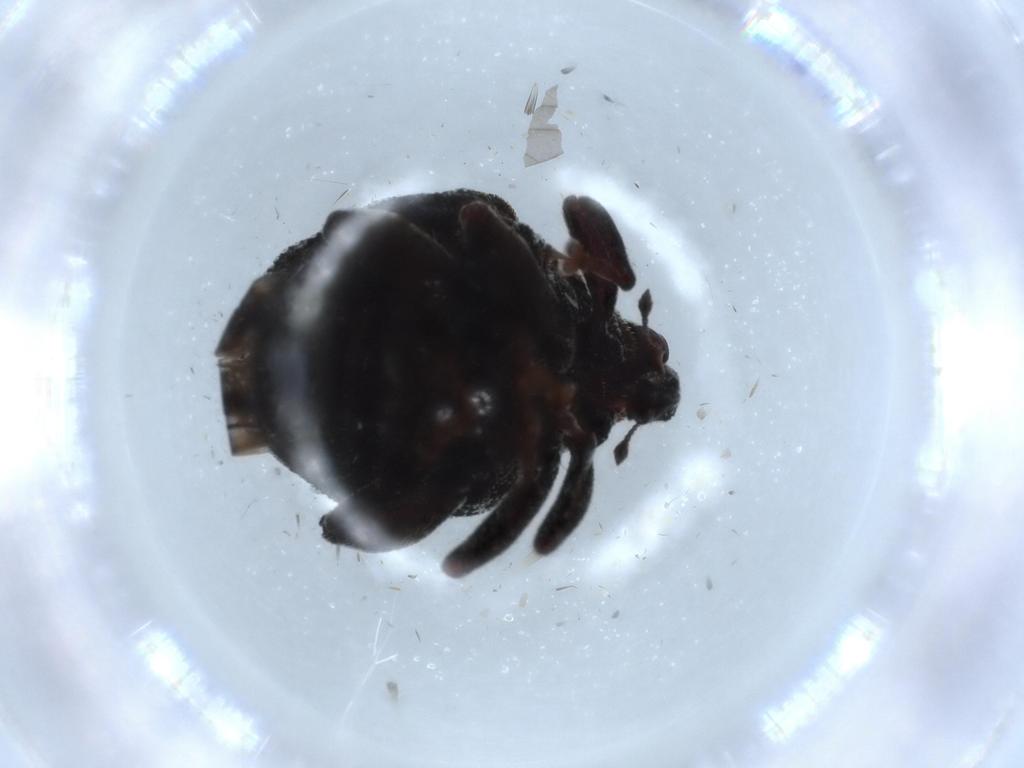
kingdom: Animalia
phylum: Arthropoda
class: Insecta
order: Coleoptera
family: Curculionidae
